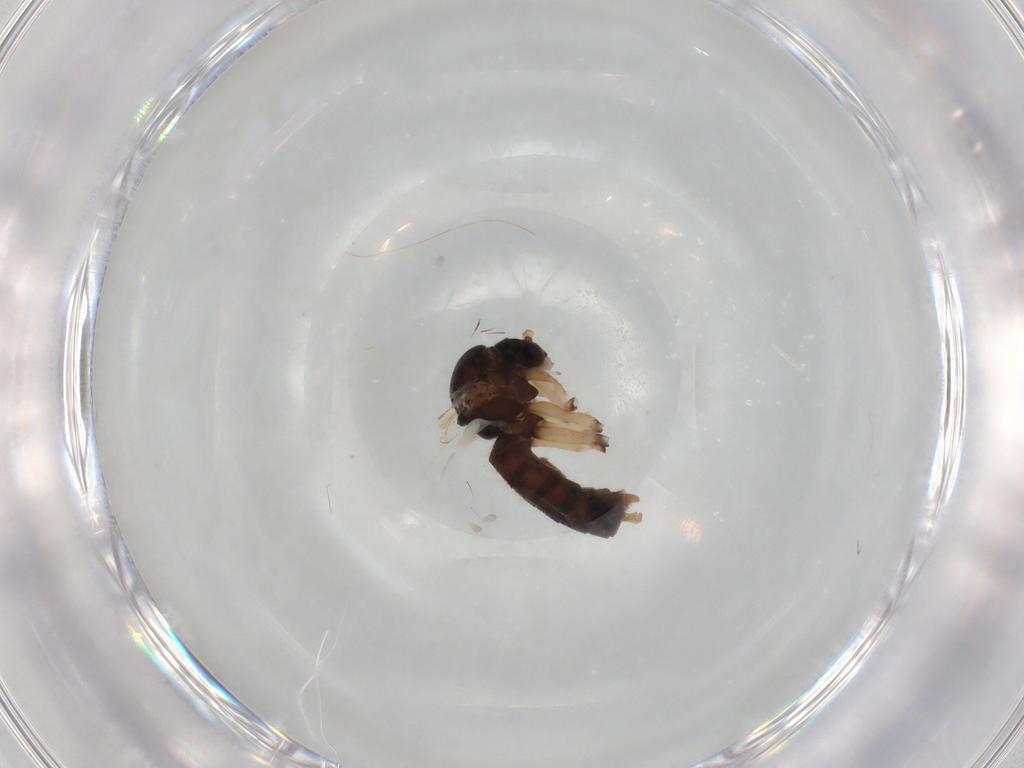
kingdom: Animalia
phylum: Arthropoda
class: Insecta
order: Diptera
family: Chironomidae
